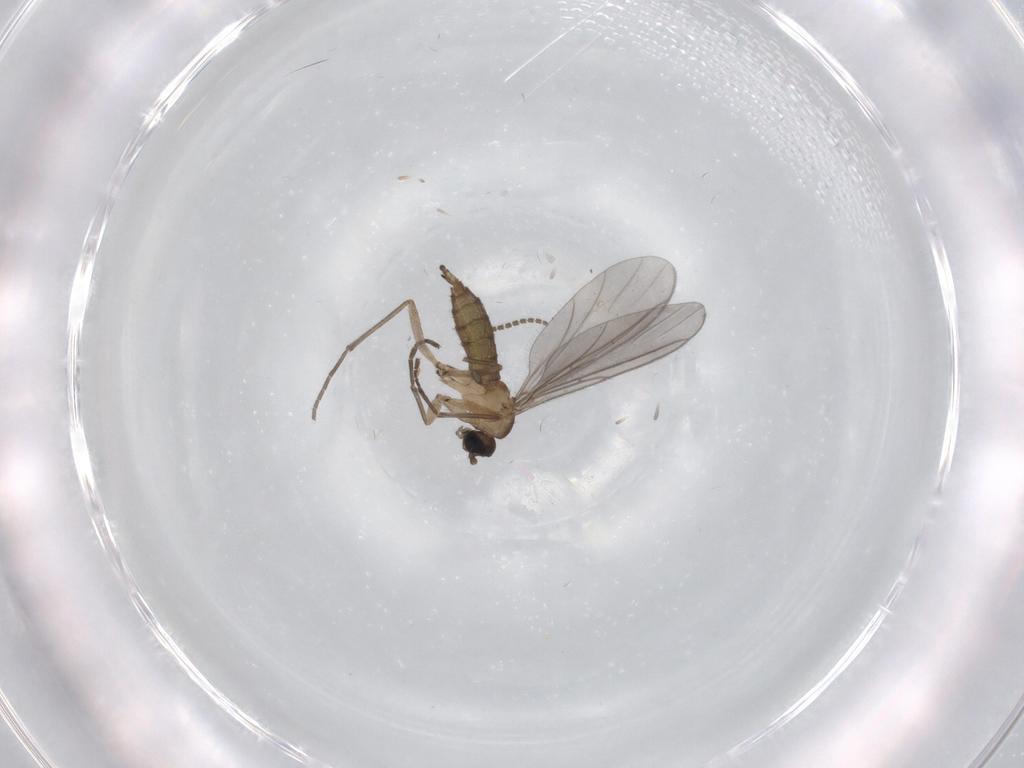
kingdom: Animalia
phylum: Arthropoda
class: Insecta
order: Diptera
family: Sciaridae
